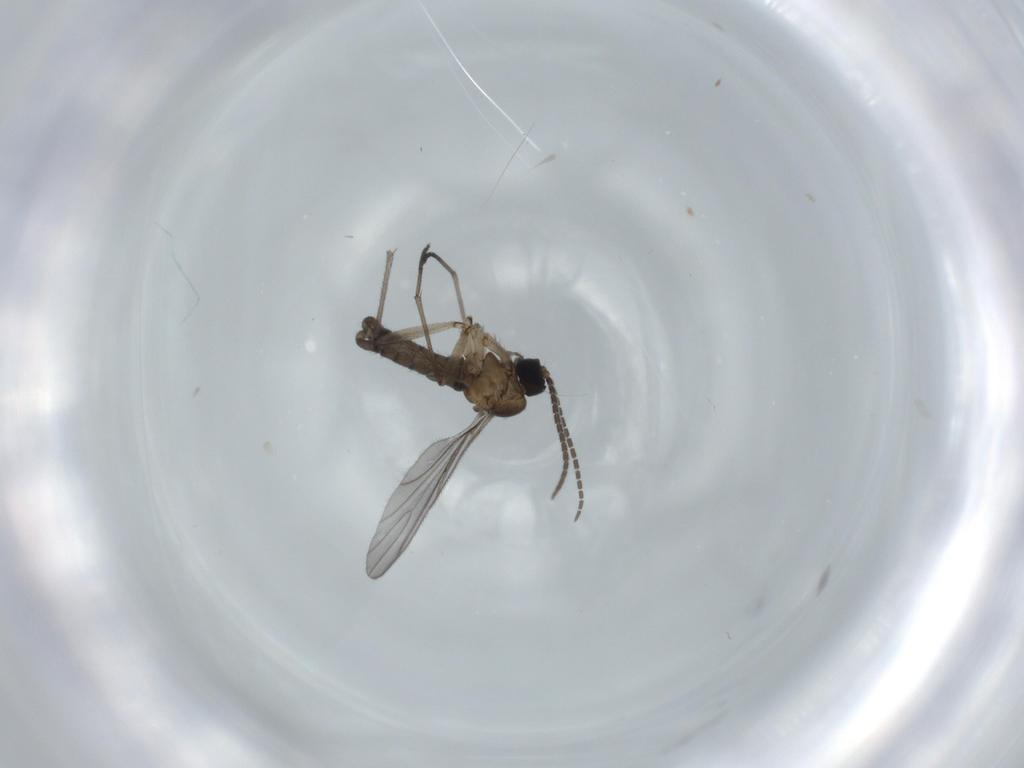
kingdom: Animalia
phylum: Arthropoda
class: Insecta
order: Diptera
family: Sciaridae
